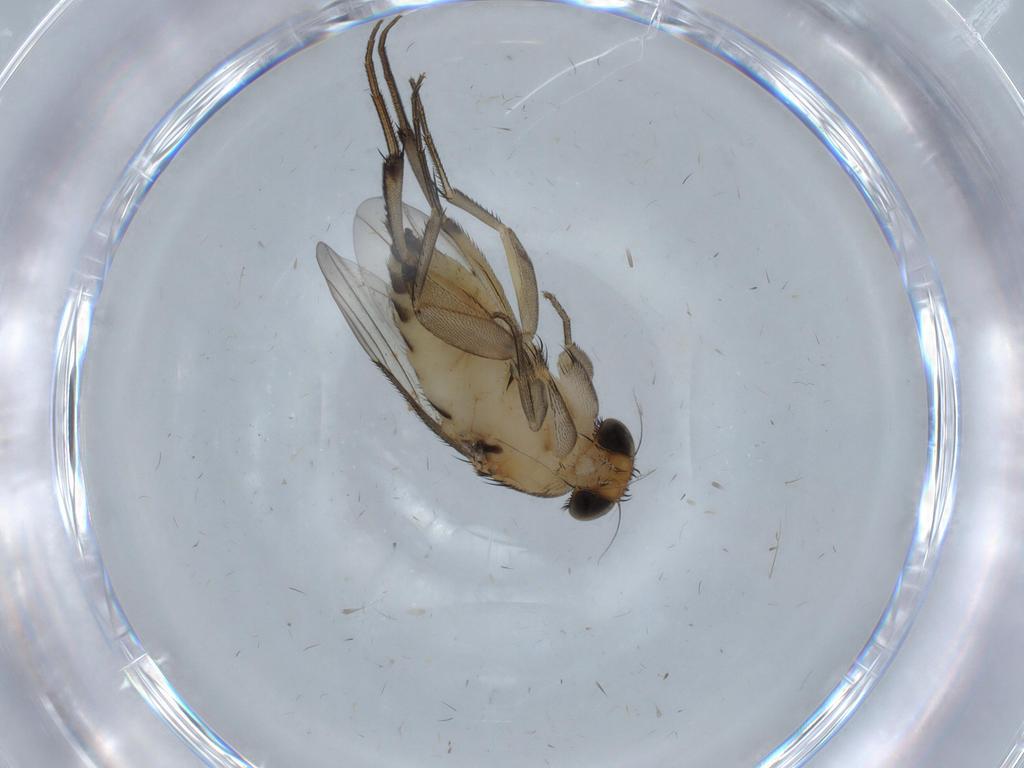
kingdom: Animalia
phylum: Arthropoda
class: Insecta
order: Diptera
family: Phoridae
